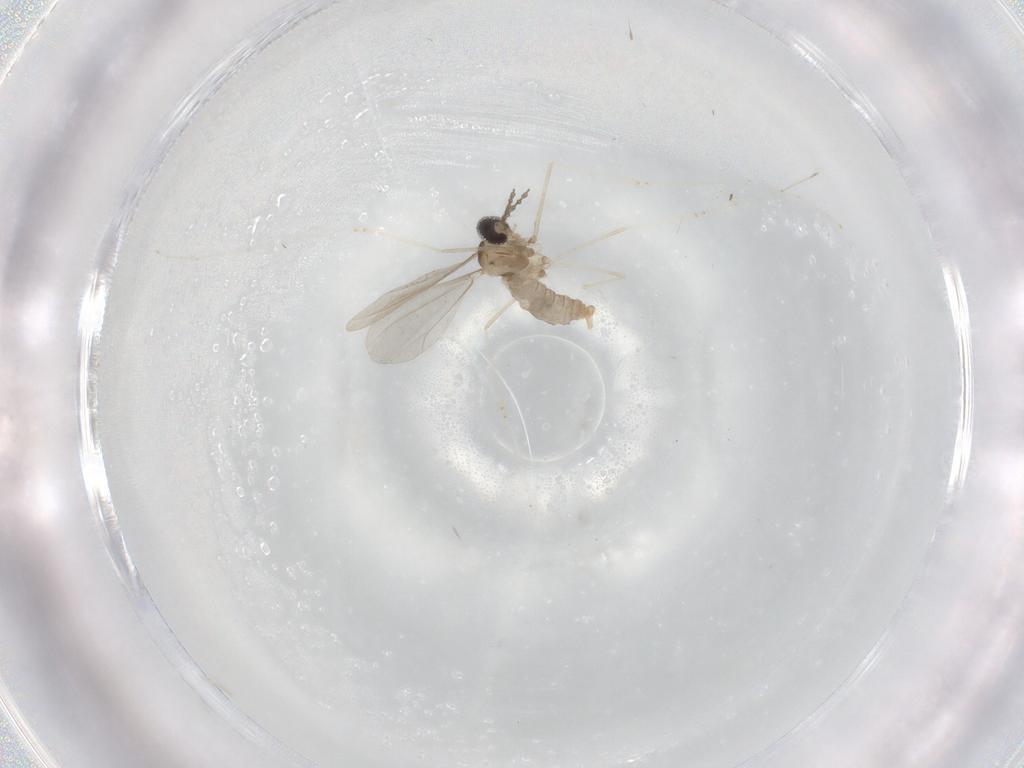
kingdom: Animalia
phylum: Arthropoda
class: Insecta
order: Diptera
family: Cecidomyiidae
